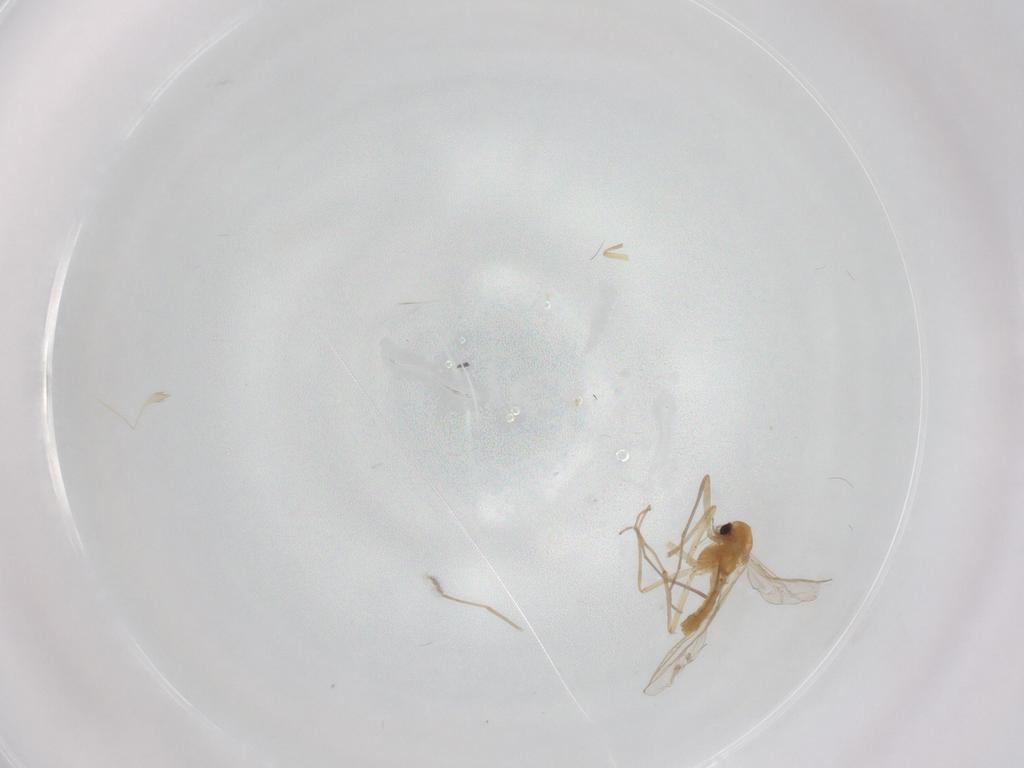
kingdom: Animalia
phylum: Arthropoda
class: Insecta
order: Diptera
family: Chironomidae
